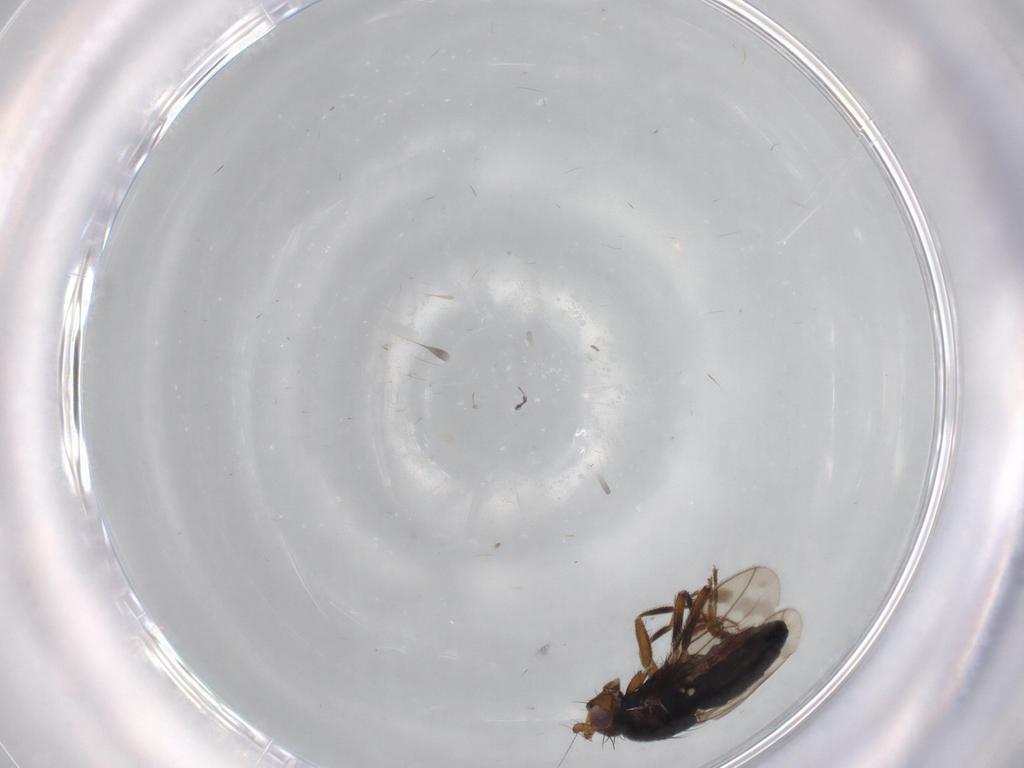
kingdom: Animalia
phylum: Arthropoda
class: Insecta
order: Diptera
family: Sphaeroceridae
